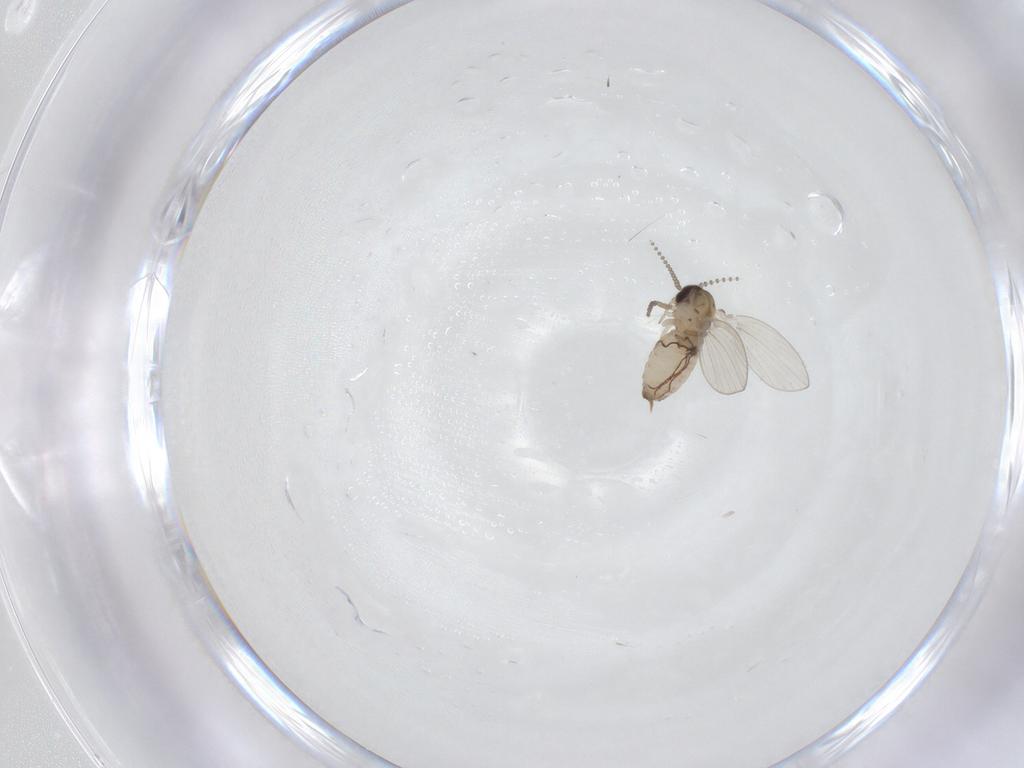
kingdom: Animalia
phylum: Arthropoda
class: Insecta
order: Diptera
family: Psychodidae
